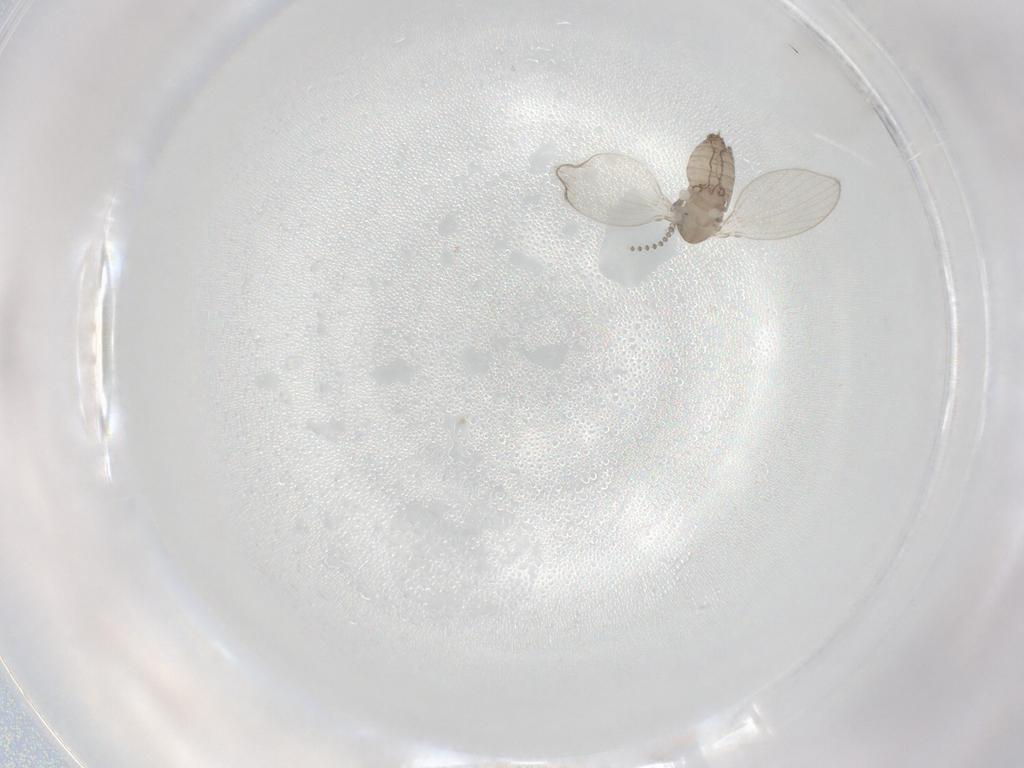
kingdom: Animalia
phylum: Arthropoda
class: Insecta
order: Diptera
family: Psychodidae
